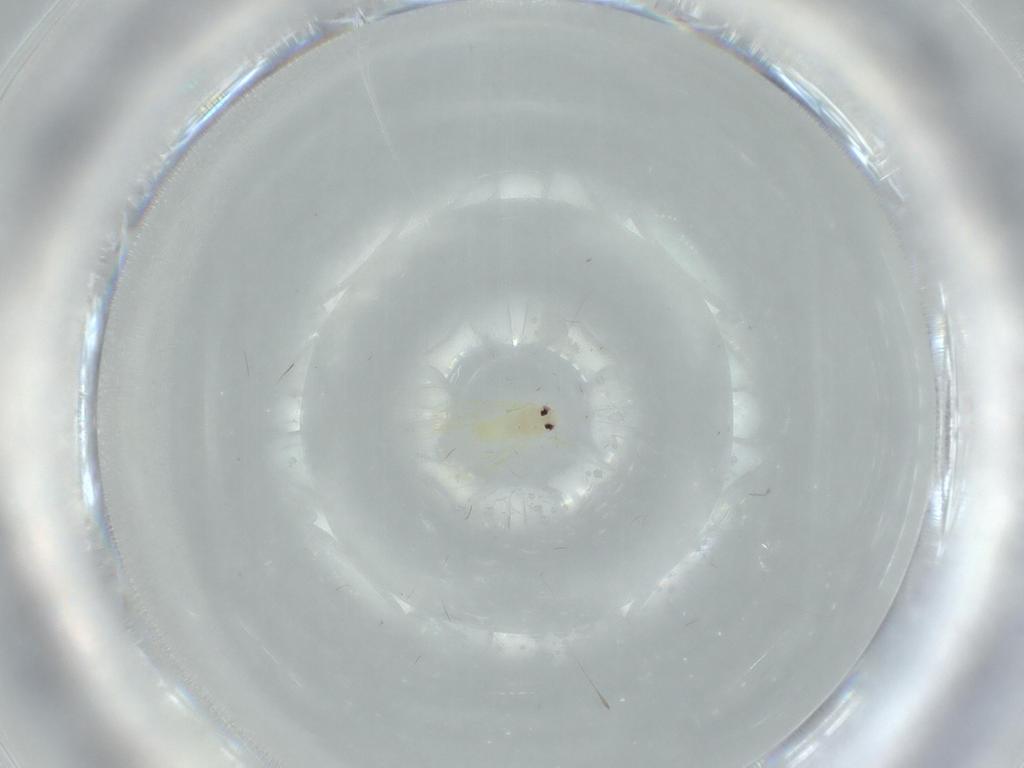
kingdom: Animalia
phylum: Arthropoda
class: Insecta
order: Hemiptera
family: Aleyrodidae
